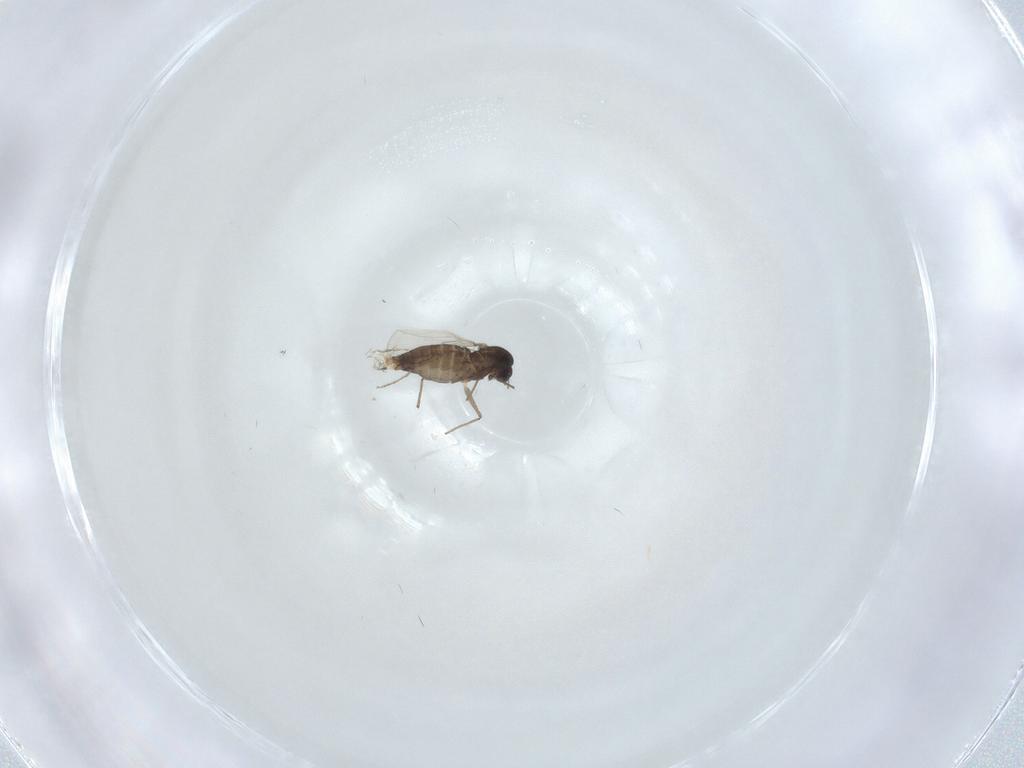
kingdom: Animalia
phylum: Arthropoda
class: Insecta
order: Diptera
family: Chironomidae
